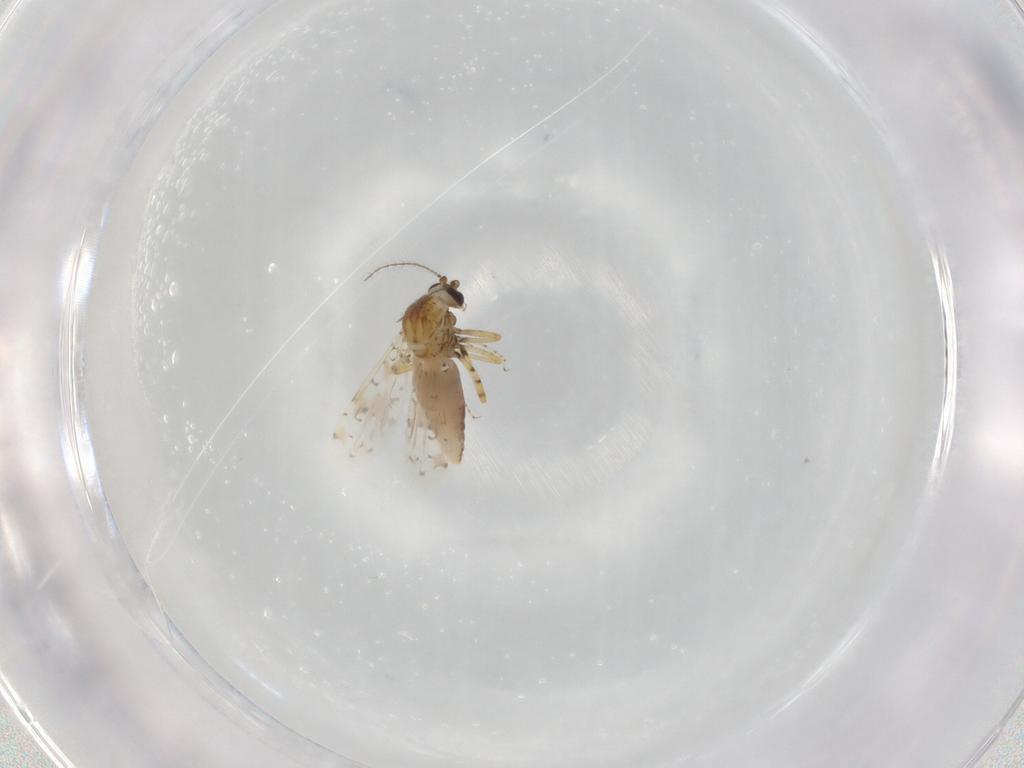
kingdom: Animalia
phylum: Arthropoda
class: Insecta
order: Diptera
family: Ceratopogonidae
